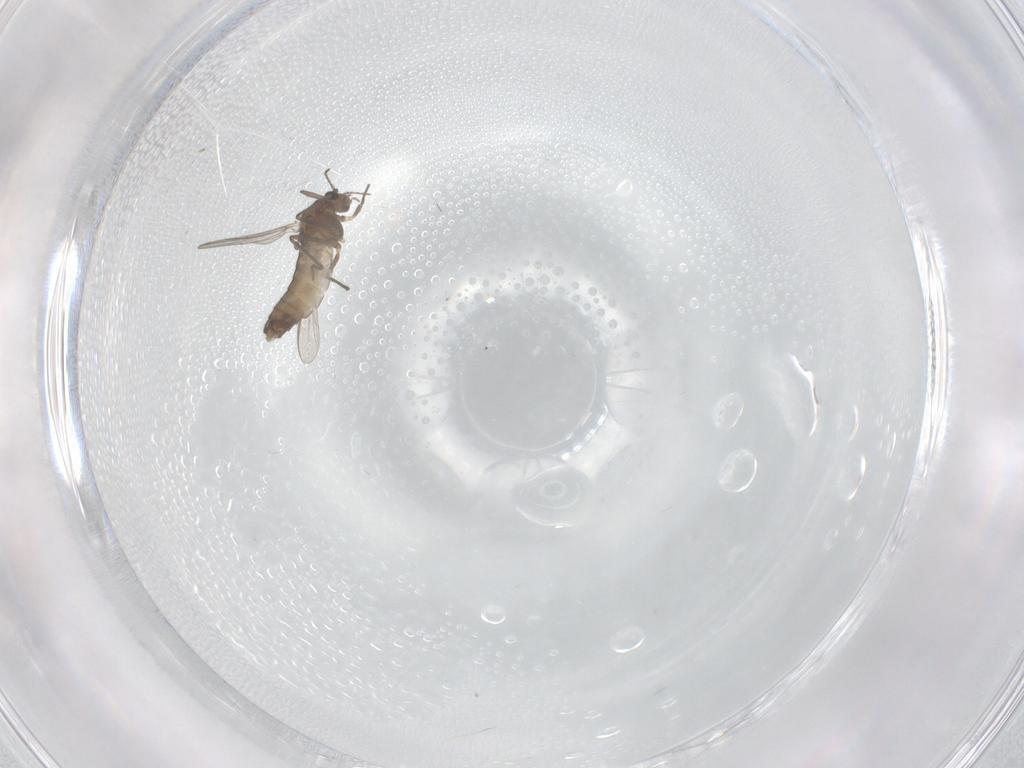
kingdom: Animalia
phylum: Arthropoda
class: Insecta
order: Diptera
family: Chironomidae
